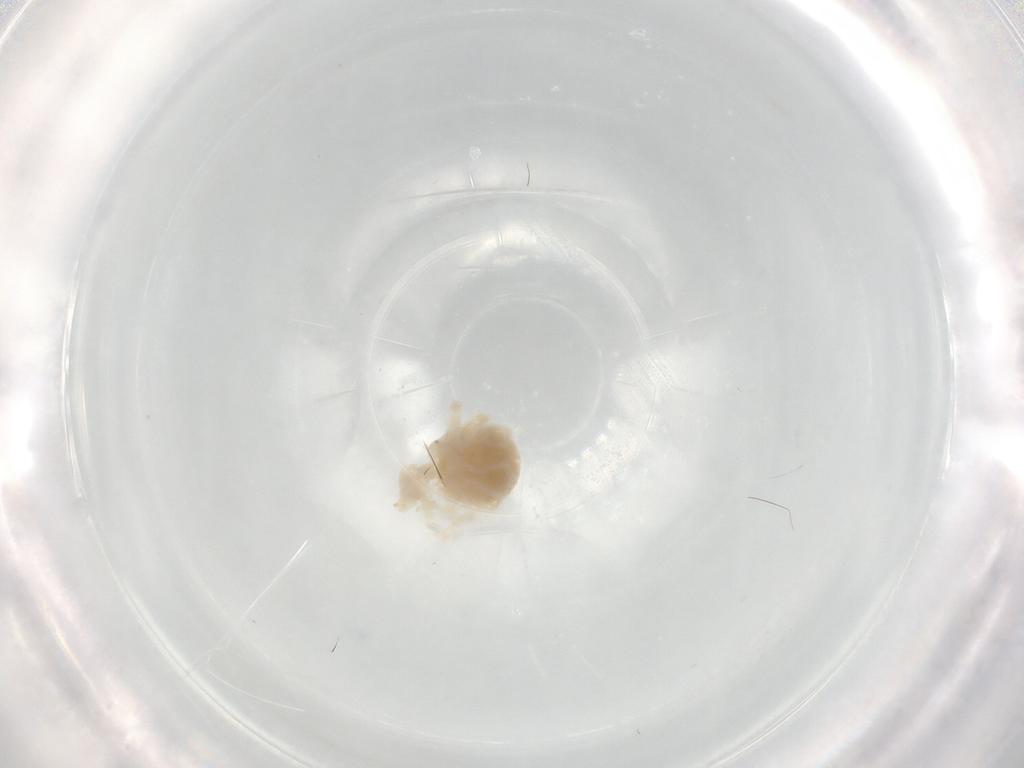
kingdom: Animalia
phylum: Arthropoda
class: Arachnida
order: Trombidiformes
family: Anystidae
